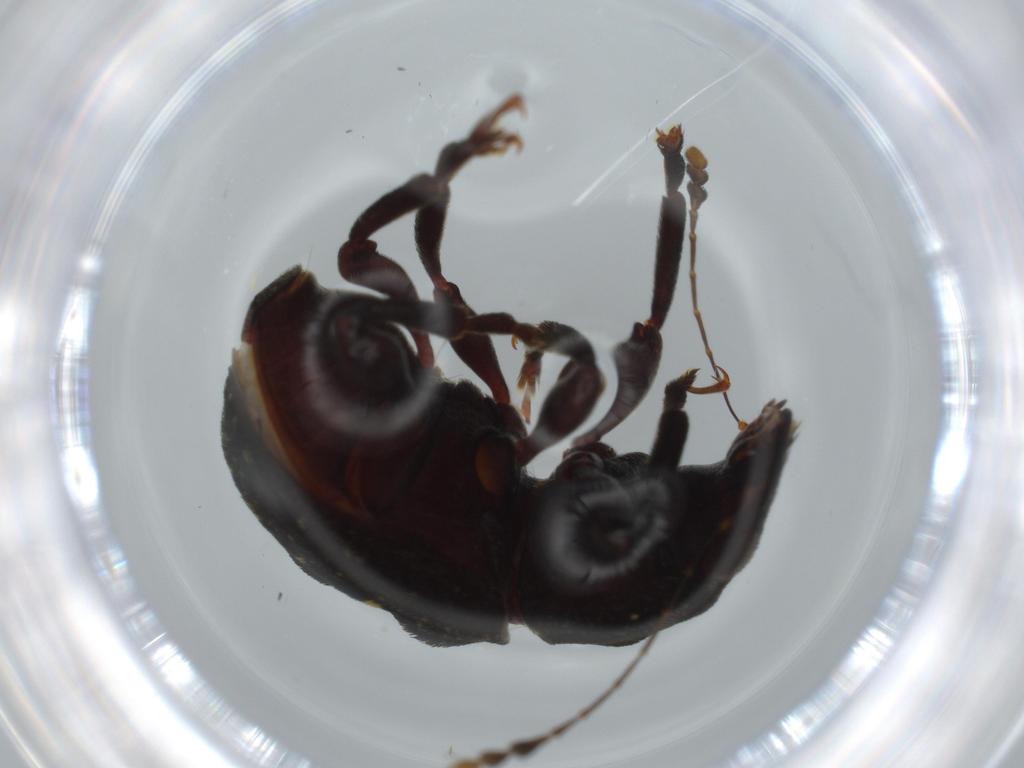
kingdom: Animalia
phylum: Arthropoda
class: Insecta
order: Coleoptera
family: Anthribidae
